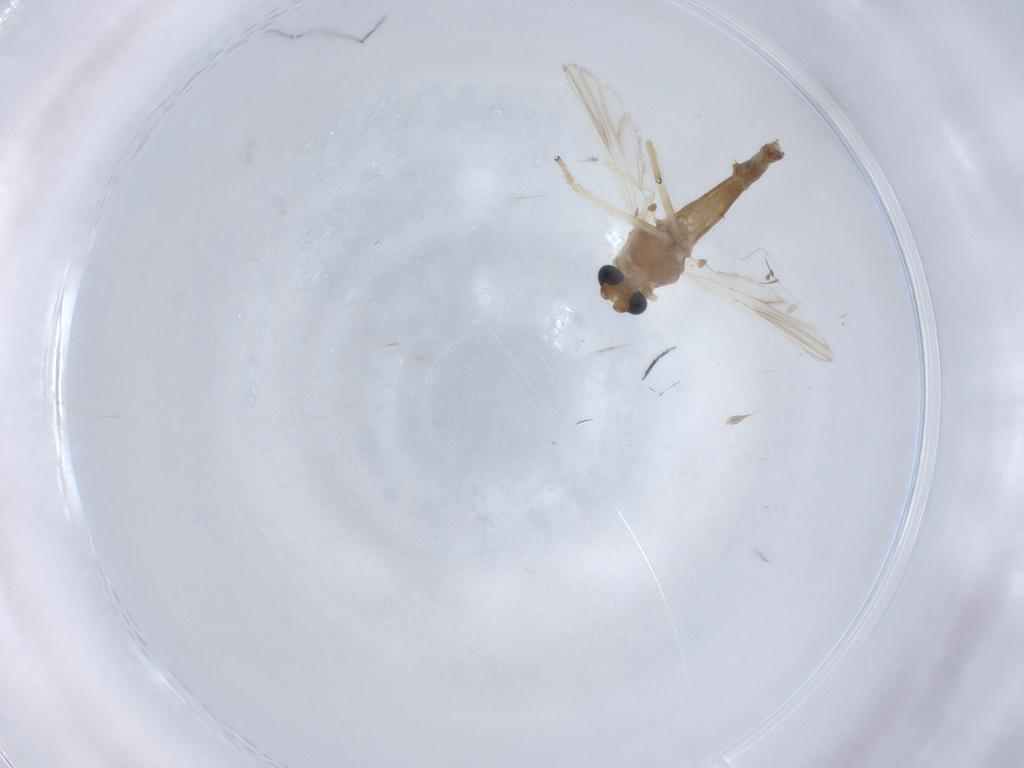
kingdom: Animalia
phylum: Arthropoda
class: Insecta
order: Diptera
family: Chironomidae
